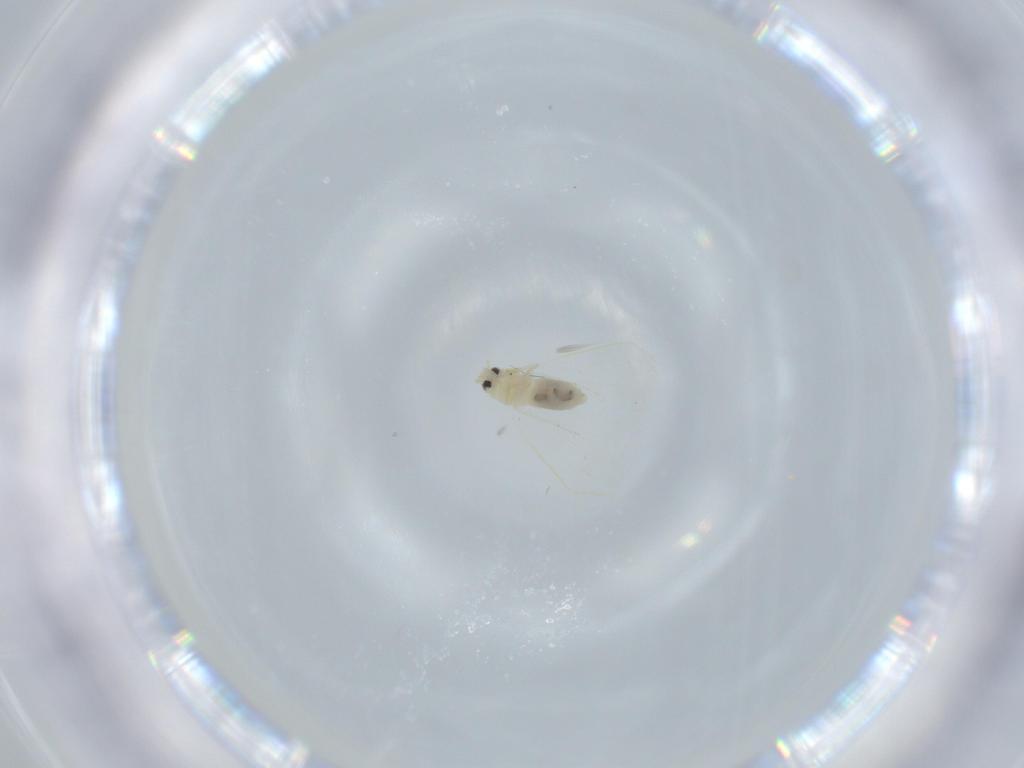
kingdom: Animalia
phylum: Arthropoda
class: Insecta
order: Hemiptera
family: Aleyrodidae
